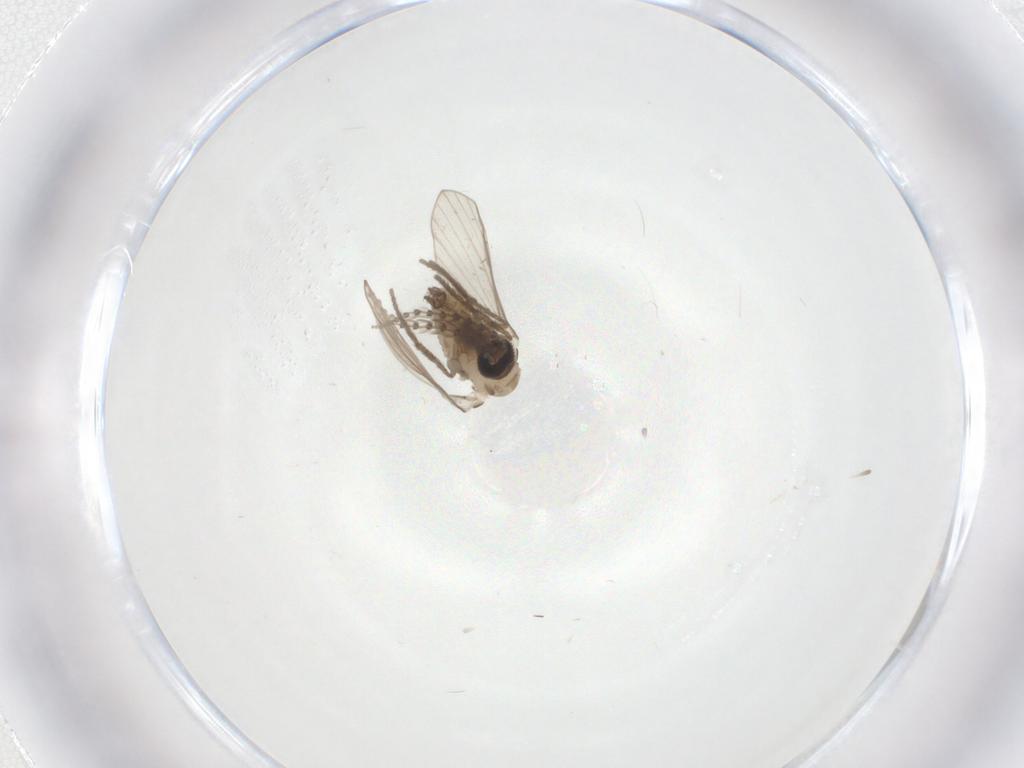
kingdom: Animalia
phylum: Arthropoda
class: Insecta
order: Diptera
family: Psychodidae
